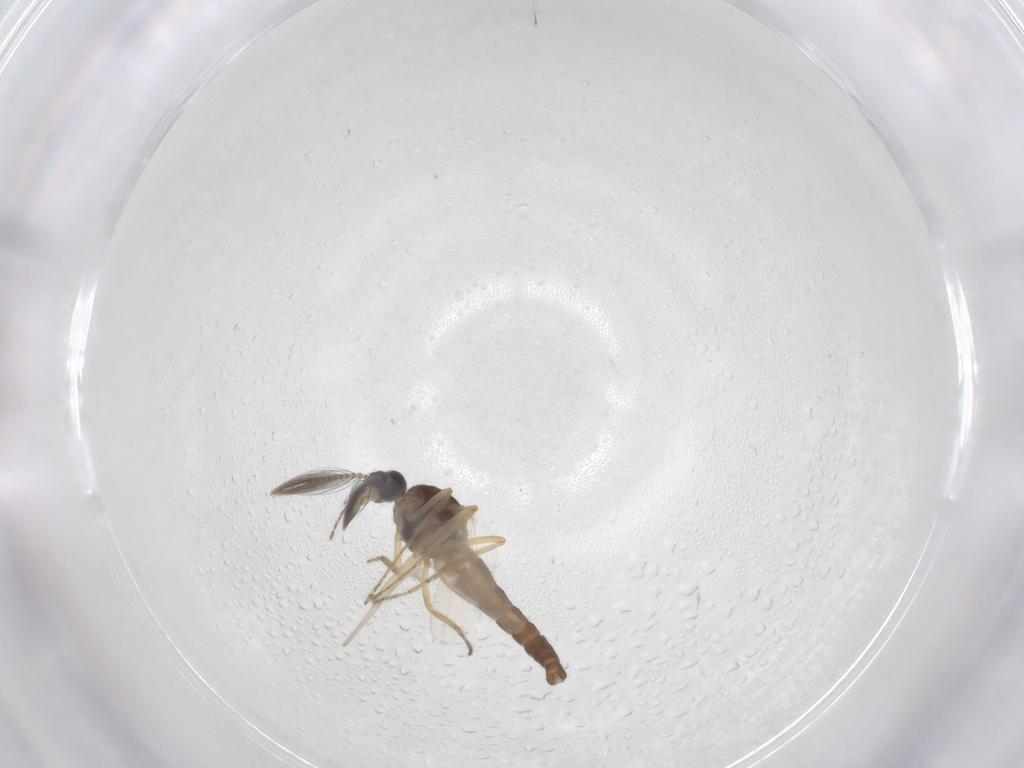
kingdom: Animalia
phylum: Arthropoda
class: Insecta
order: Diptera
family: Ceratopogonidae
